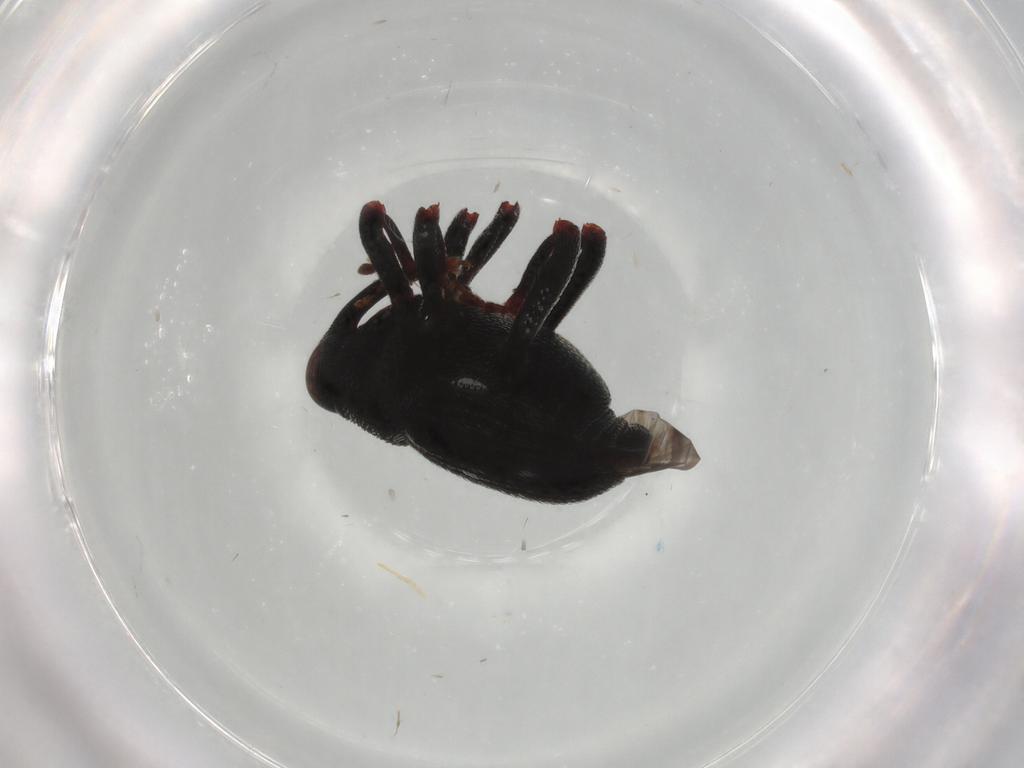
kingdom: Animalia
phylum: Arthropoda
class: Insecta
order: Coleoptera
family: Curculionidae
